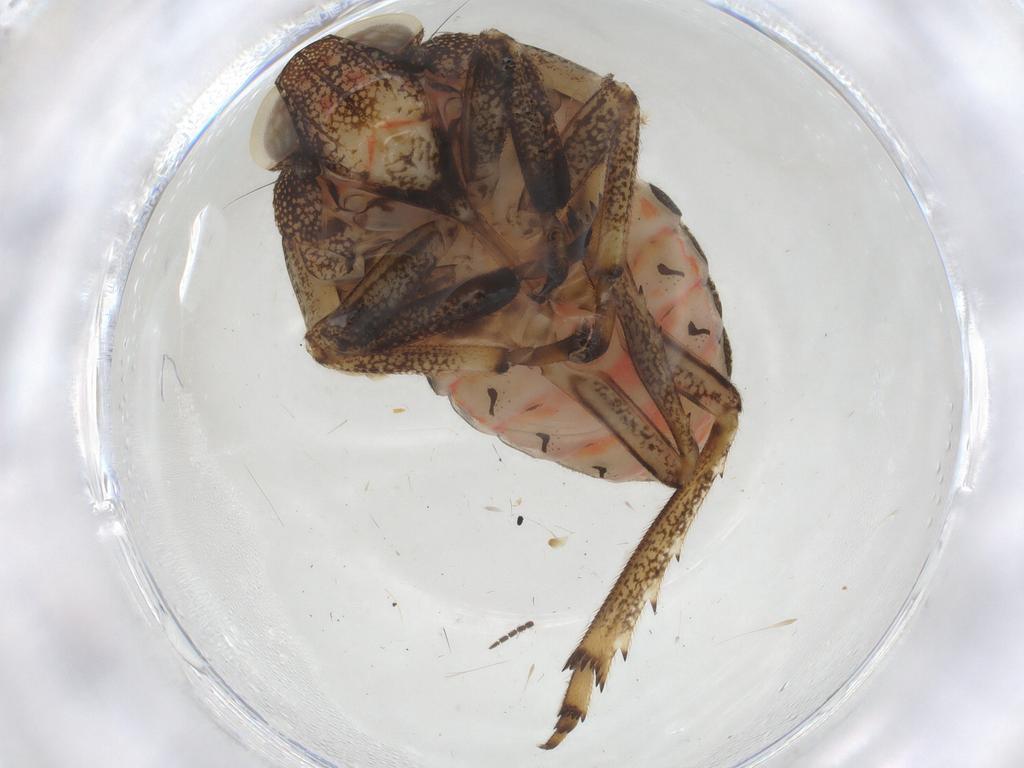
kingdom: Animalia
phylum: Arthropoda
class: Insecta
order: Hemiptera
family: Issidae
